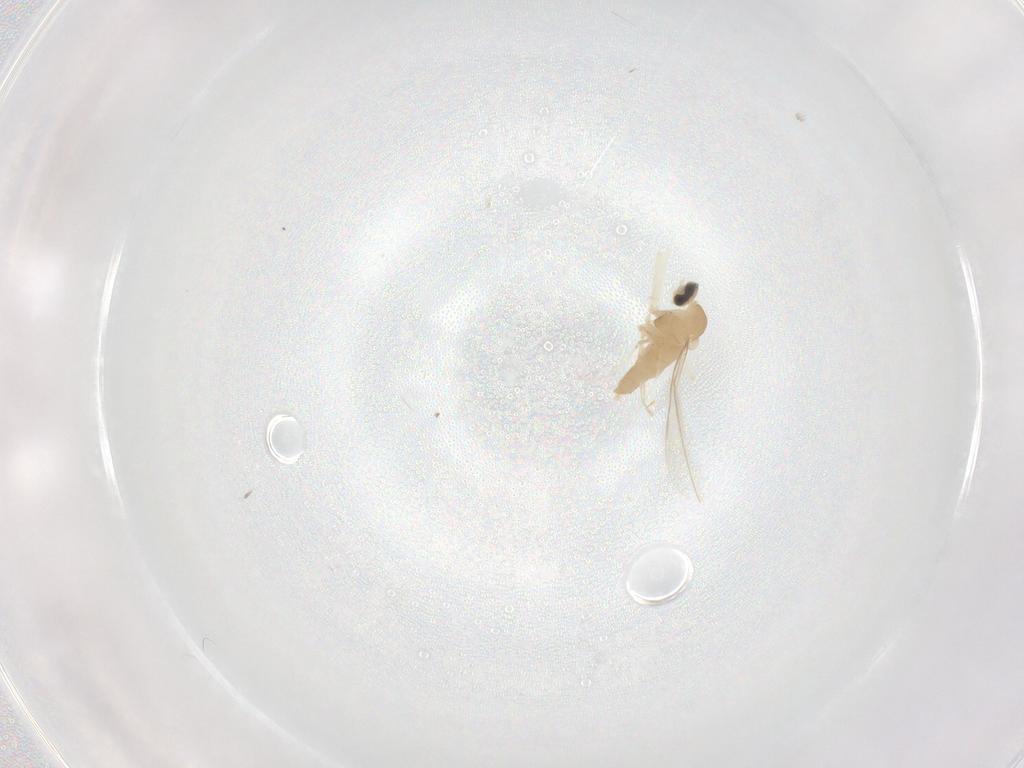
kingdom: Animalia
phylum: Arthropoda
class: Insecta
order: Diptera
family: Cecidomyiidae
